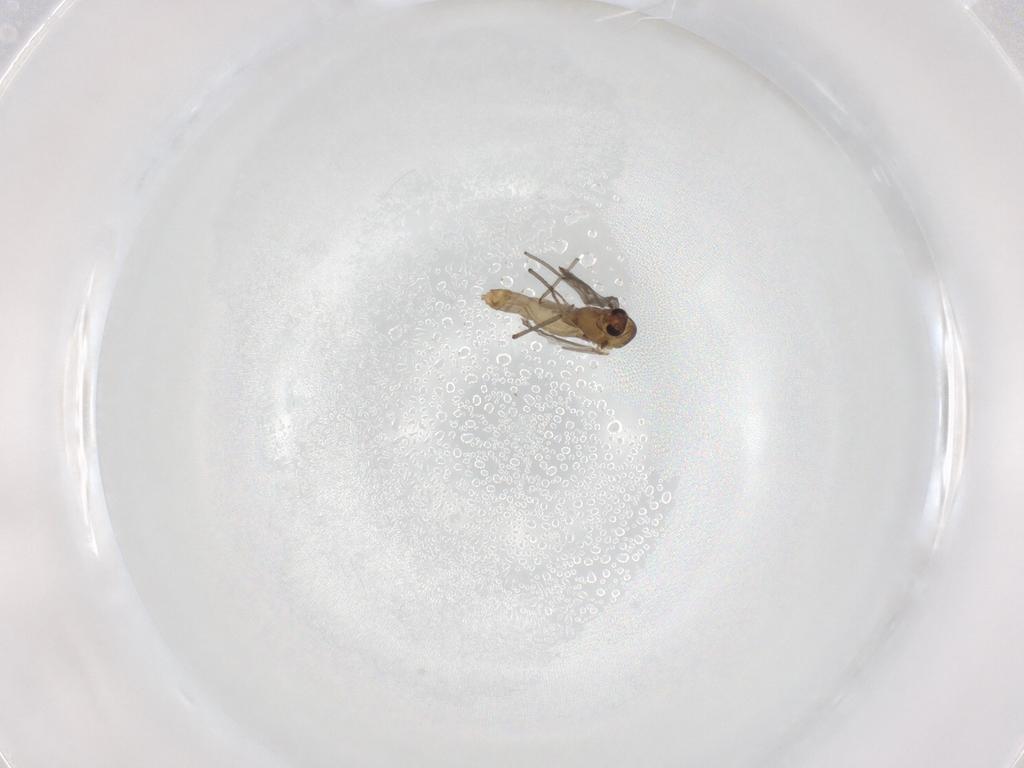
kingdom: Animalia
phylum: Arthropoda
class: Insecta
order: Diptera
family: Chironomidae
